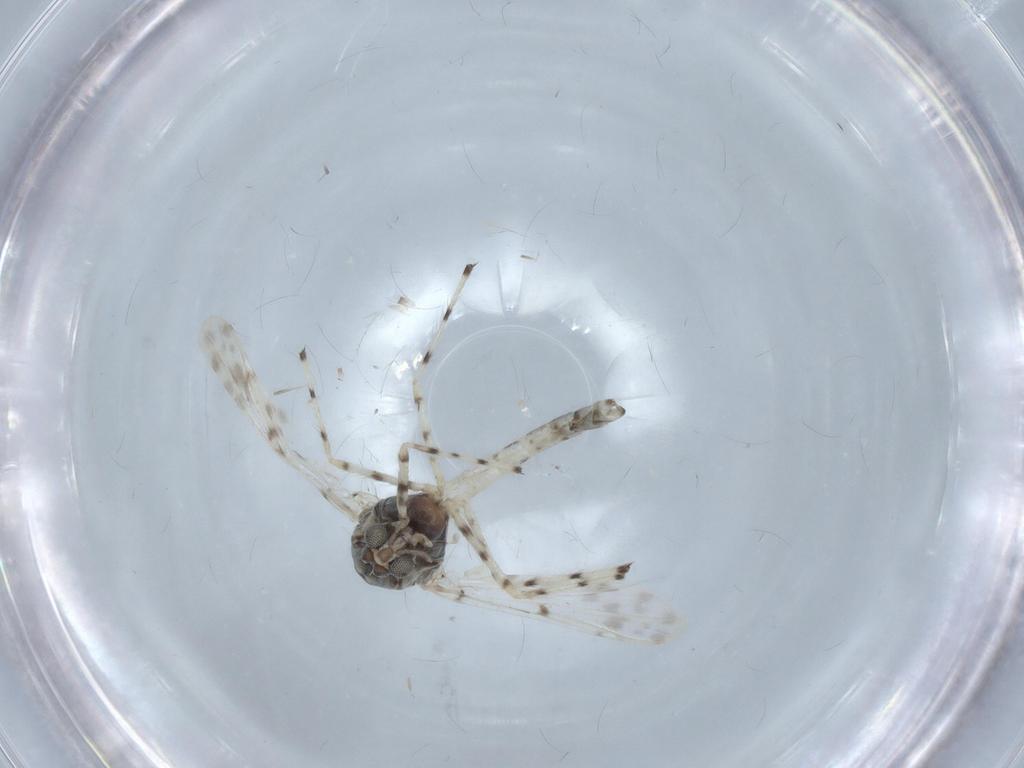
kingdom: Animalia
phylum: Arthropoda
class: Insecta
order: Diptera
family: Chironomidae
